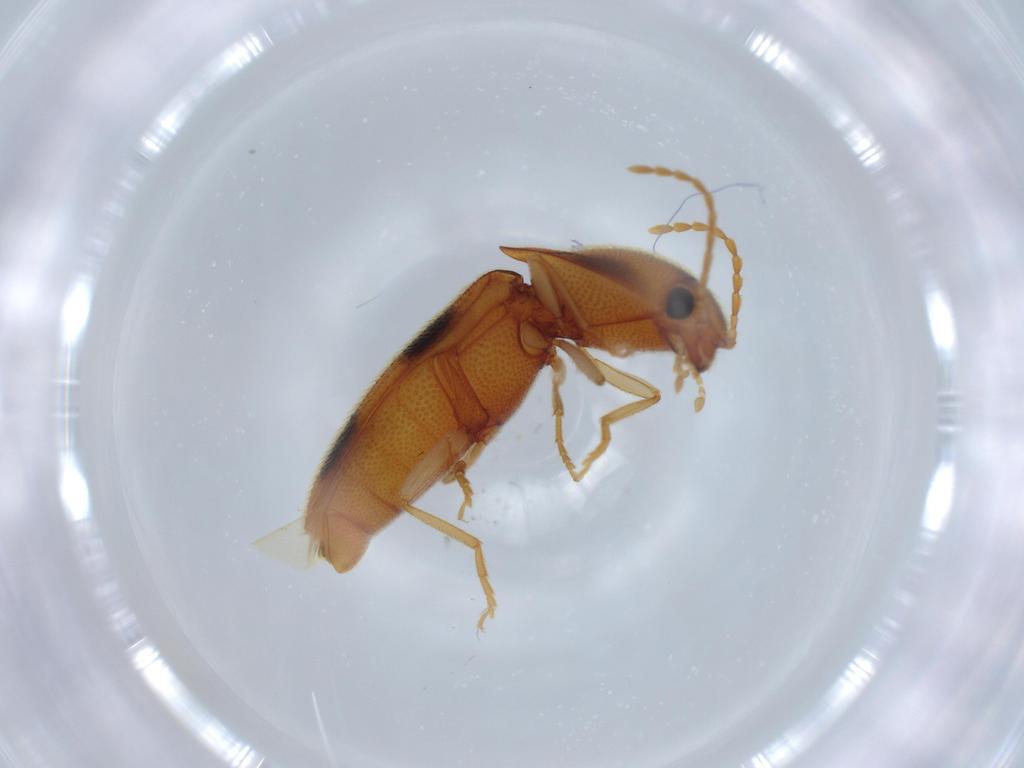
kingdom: Animalia
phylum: Arthropoda
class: Insecta
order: Coleoptera
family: Elateridae
